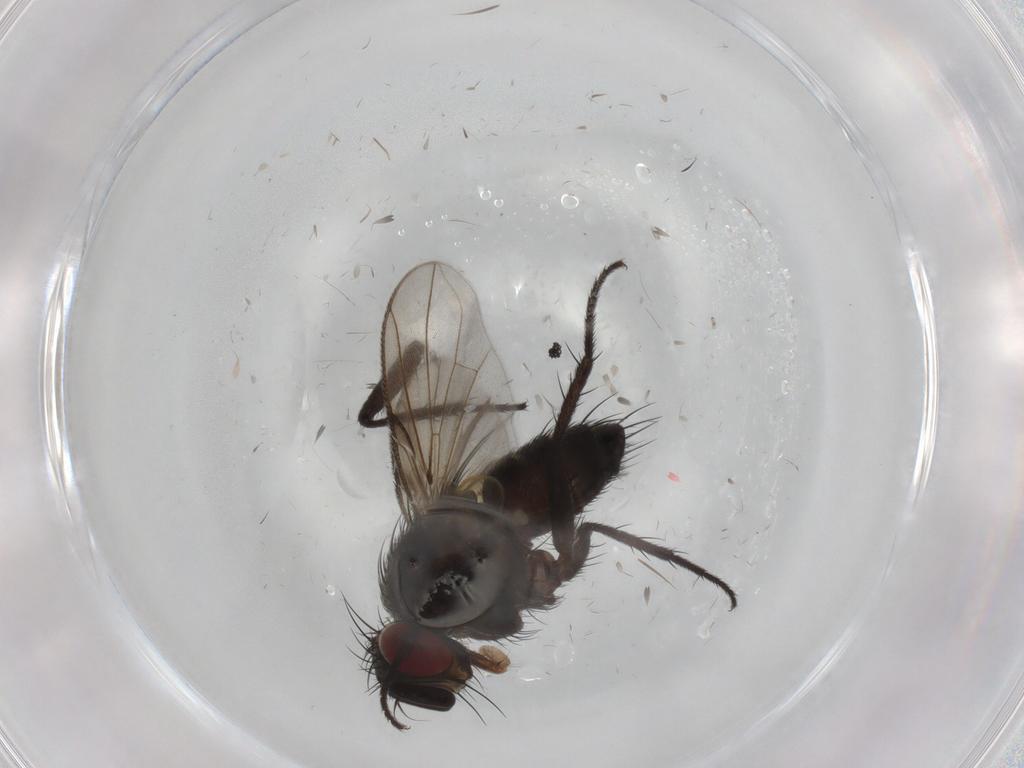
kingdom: Animalia
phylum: Arthropoda
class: Insecta
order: Diptera
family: Chironomidae
